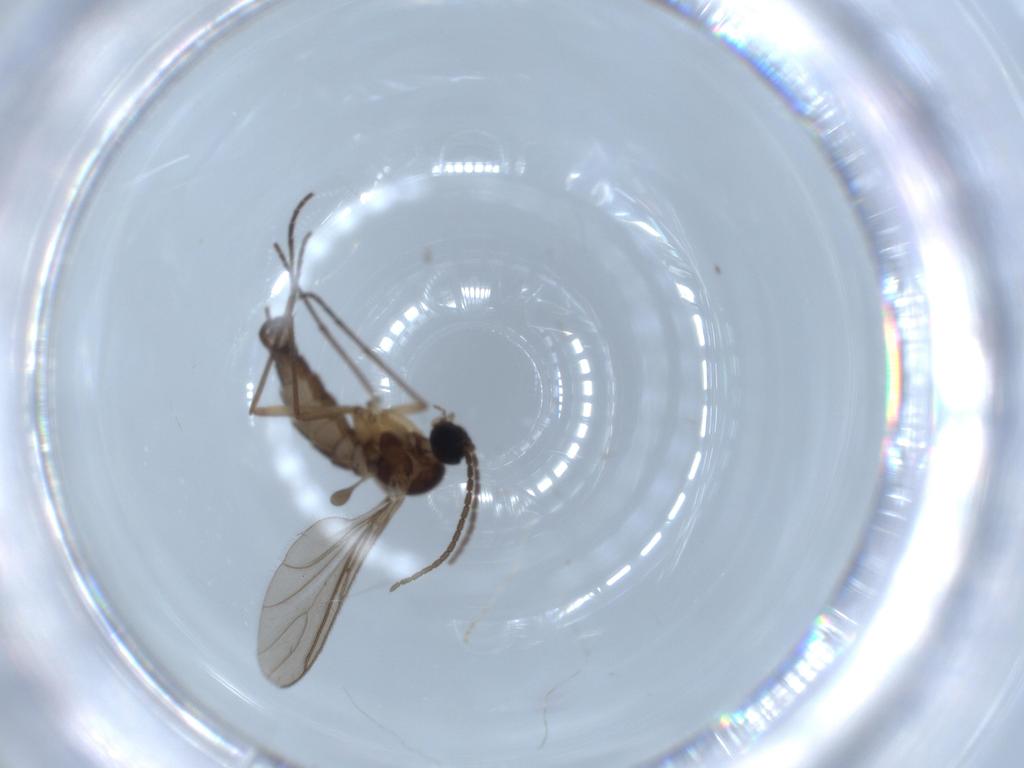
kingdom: Animalia
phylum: Arthropoda
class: Insecta
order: Diptera
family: Sciaridae
